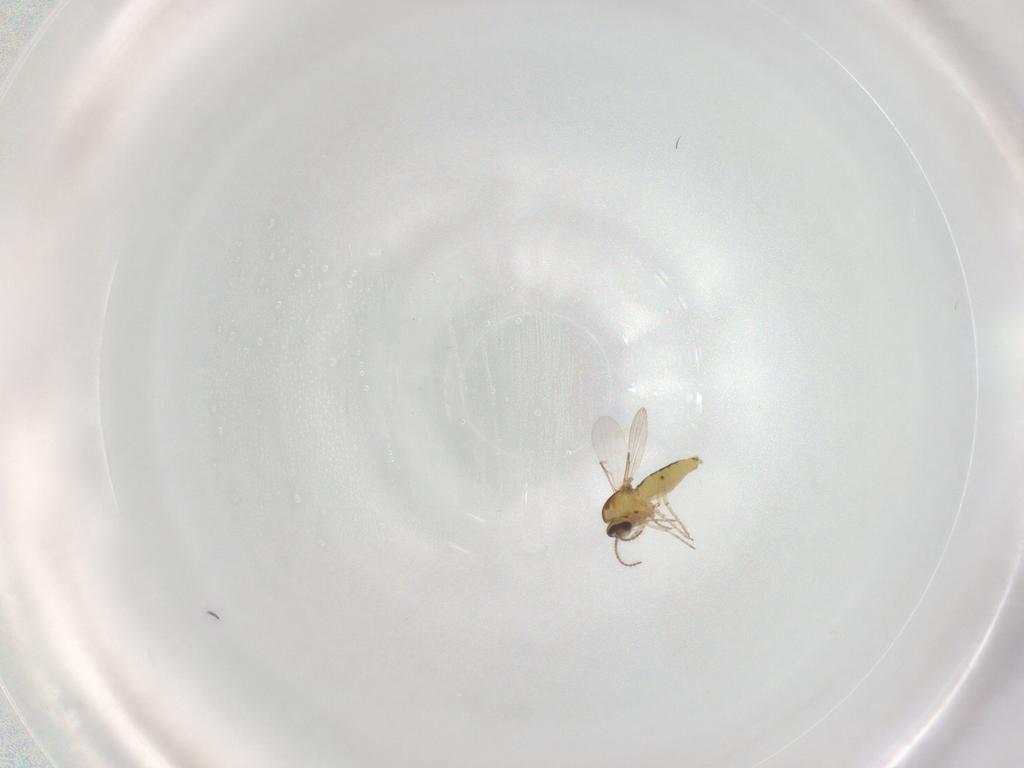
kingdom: Animalia
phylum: Arthropoda
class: Insecta
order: Diptera
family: Ceratopogonidae
